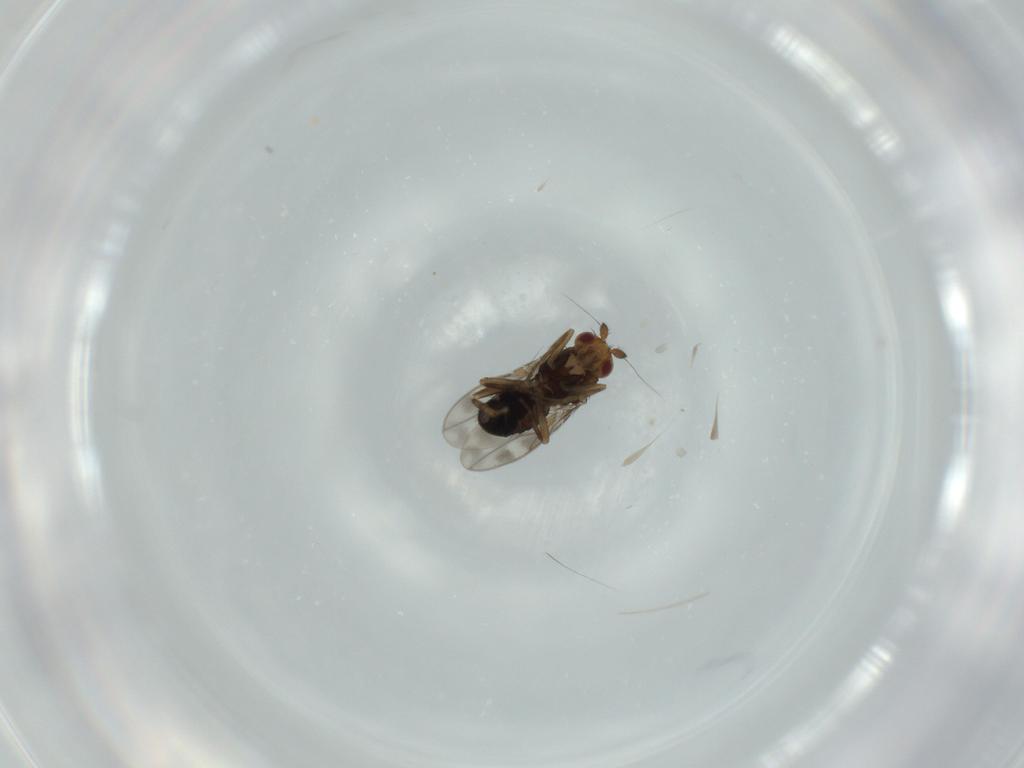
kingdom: Animalia
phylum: Arthropoda
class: Insecta
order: Diptera
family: Sphaeroceridae
